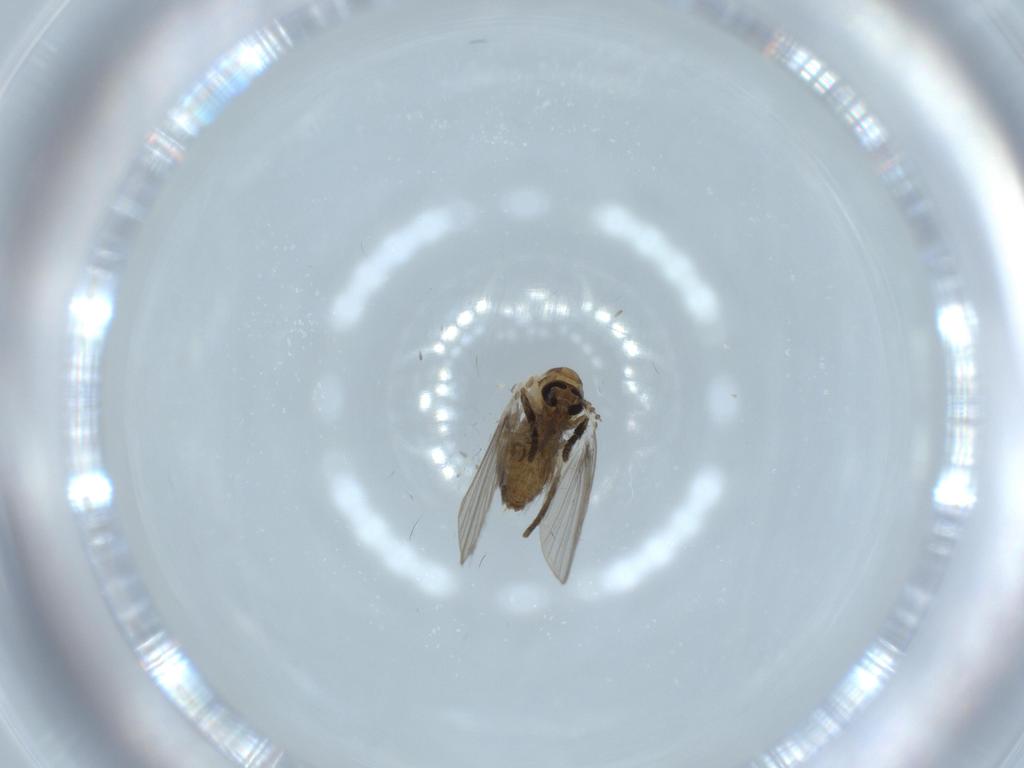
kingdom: Animalia
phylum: Arthropoda
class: Insecta
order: Diptera
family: Psychodidae
